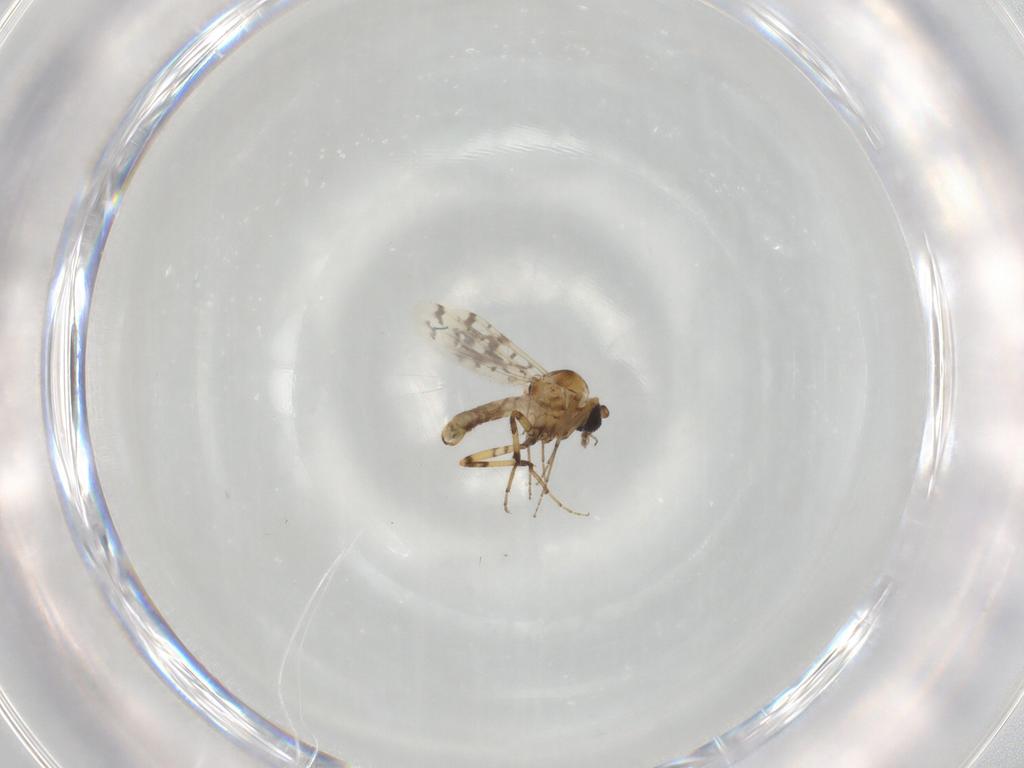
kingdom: Animalia
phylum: Arthropoda
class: Insecta
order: Diptera
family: Ceratopogonidae
